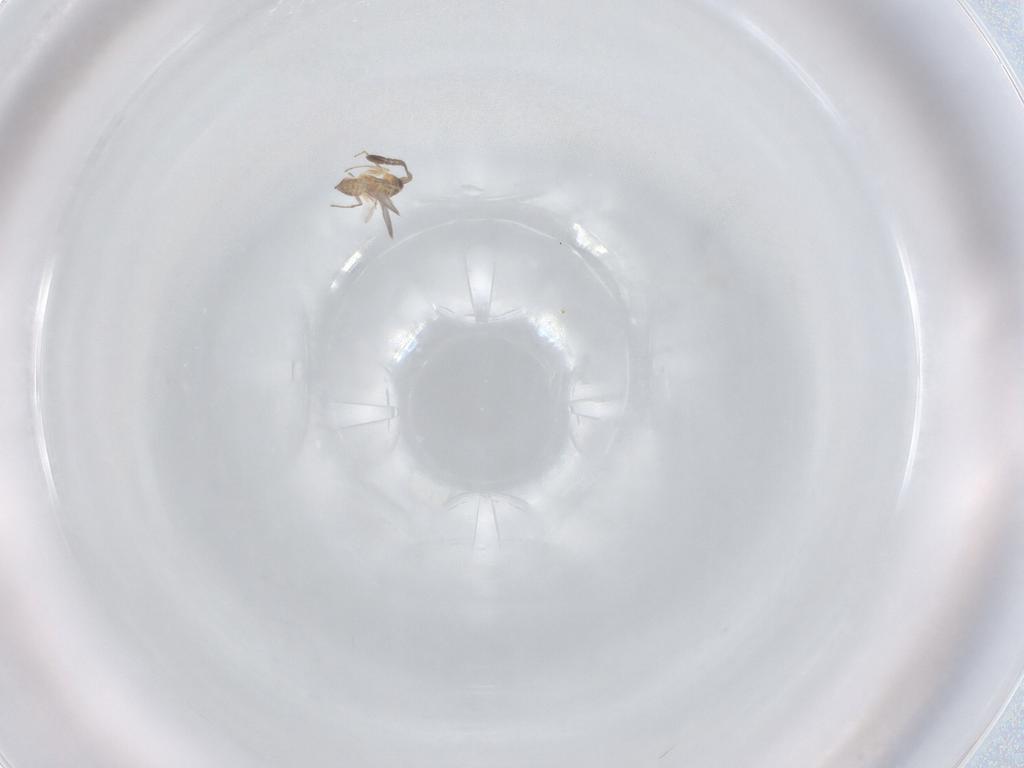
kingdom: Animalia
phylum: Arthropoda
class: Insecta
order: Hymenoptera
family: Mymaridae
